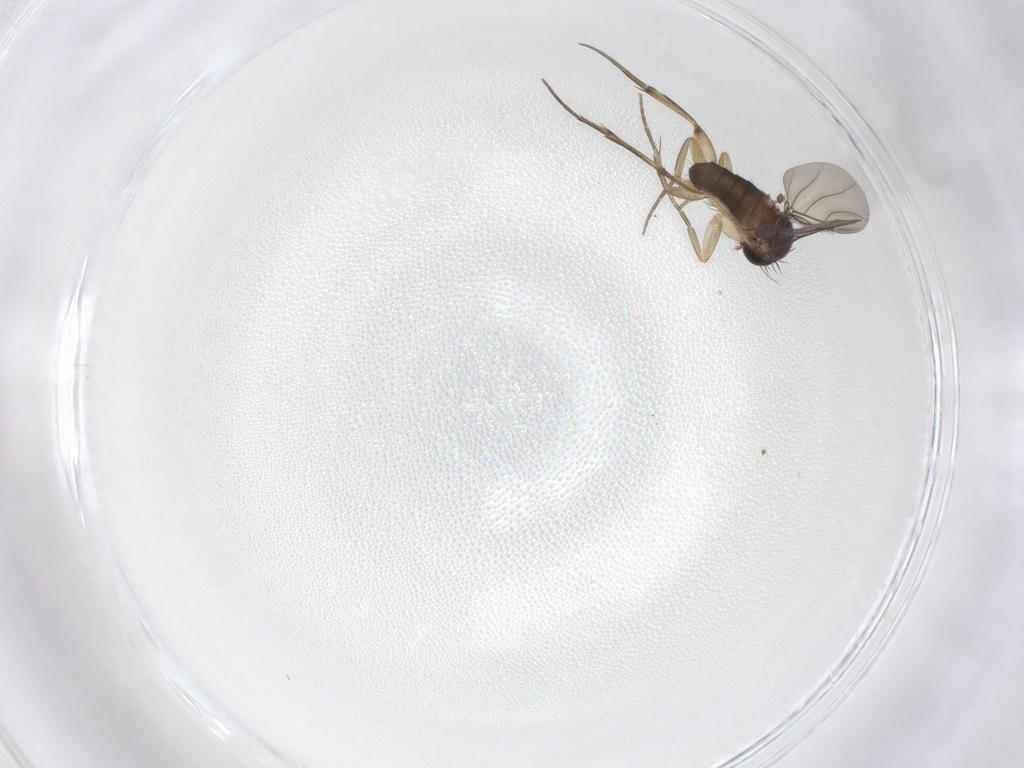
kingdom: Animalia
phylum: Arthropoda
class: Insecta
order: Diptera
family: Phoridae
